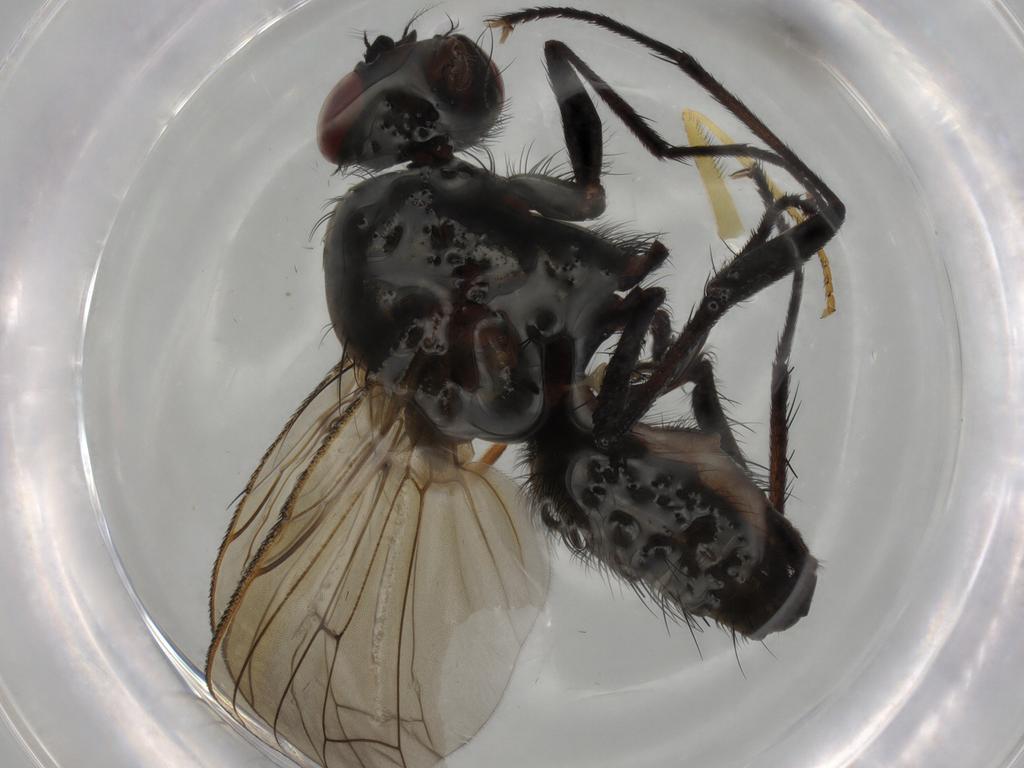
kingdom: Animalia
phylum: Arthropoda
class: Insecta
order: Diptera
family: Anthomyiidae
